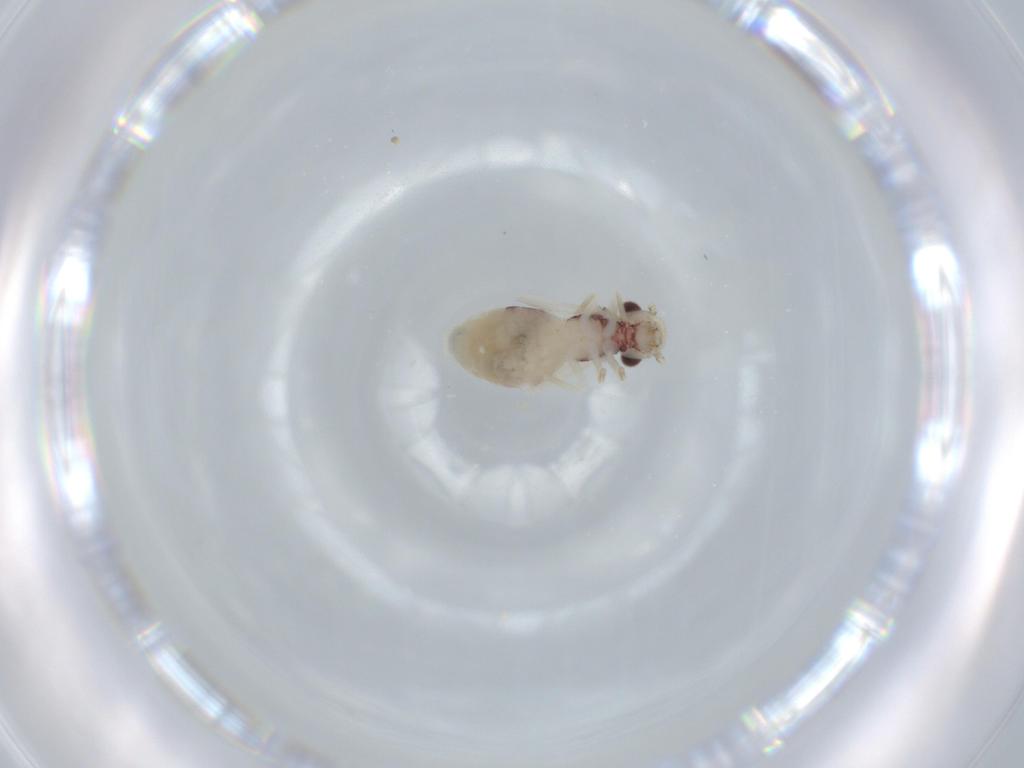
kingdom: Animalia
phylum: Arthropoda
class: Insecta
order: Psocodea
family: Caeciliusidae
